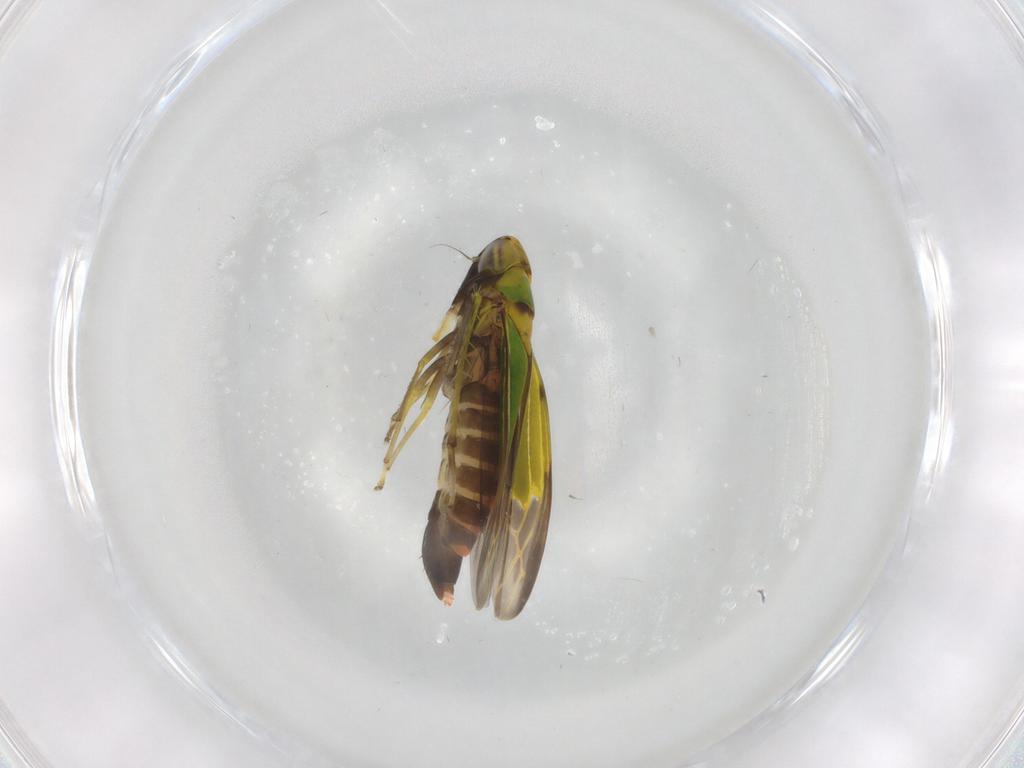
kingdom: Animalia
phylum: Arthropoda
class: Insecta
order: Hemiptera
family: Cicadellidae
